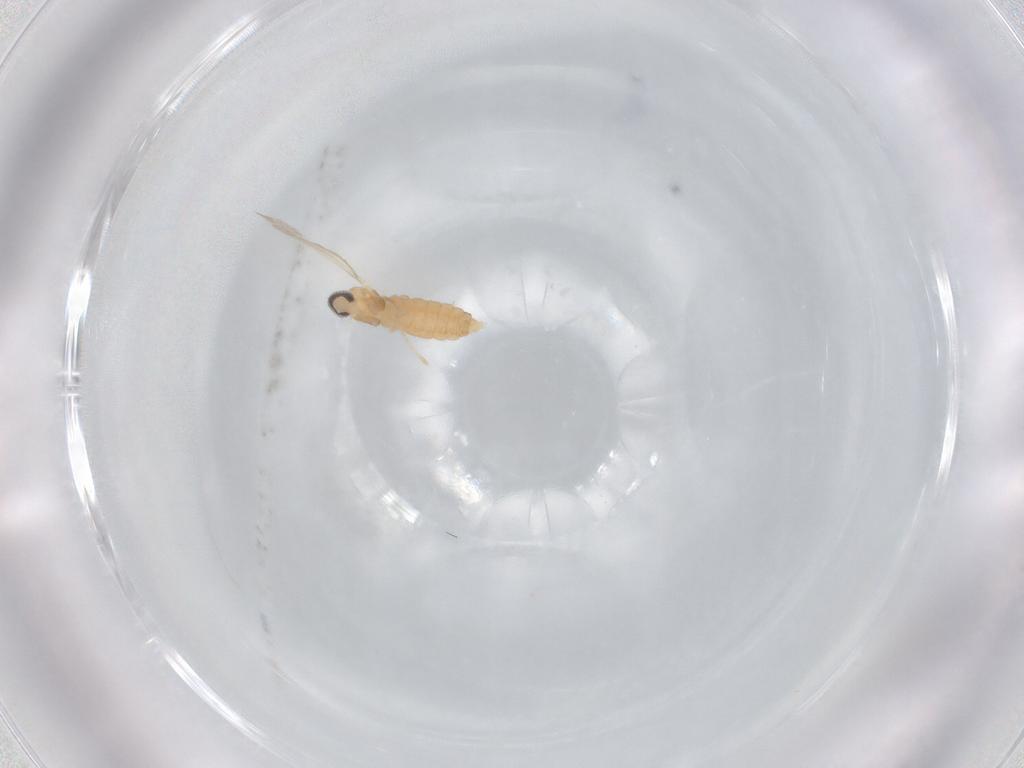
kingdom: Animalia
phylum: Arthropoda
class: Insecta
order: Diptera
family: Cecidomyiidae
